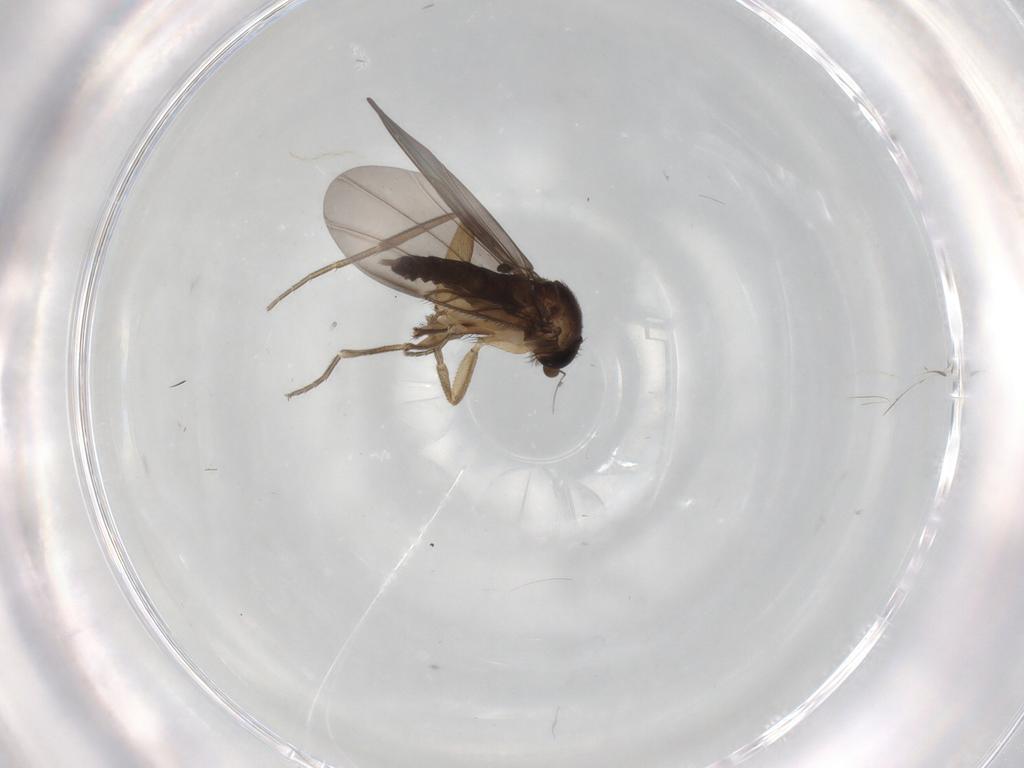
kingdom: Animalia
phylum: Arthropoda
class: Insecta
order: Diptera
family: Phoridae
